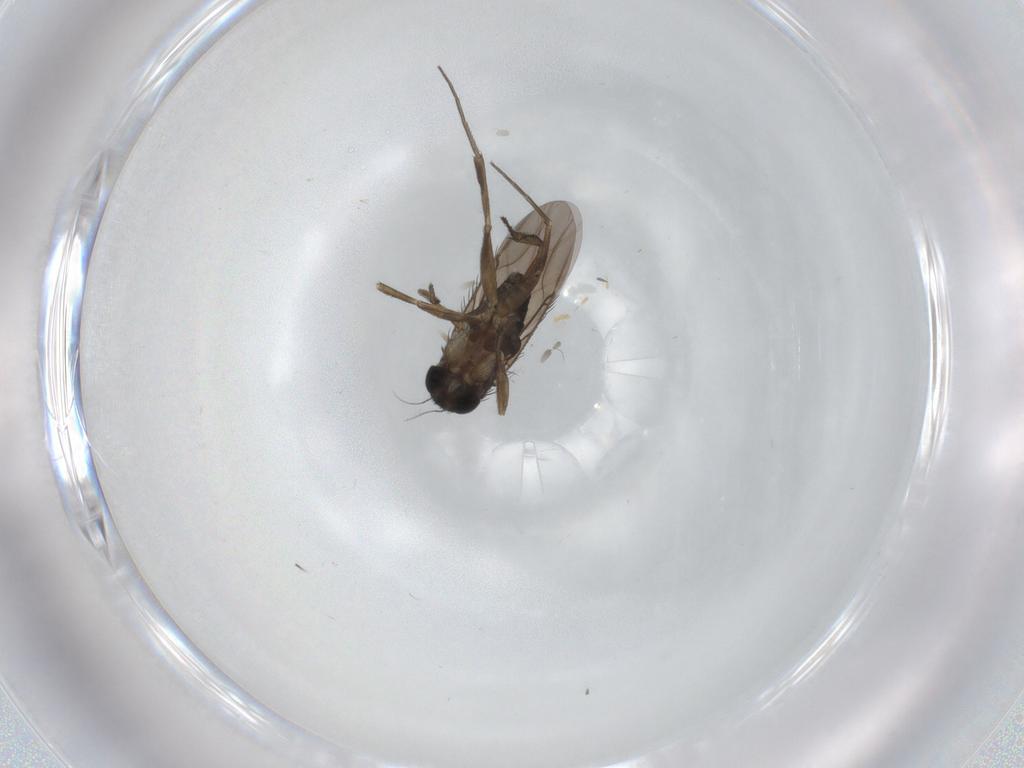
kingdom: Animalia
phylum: Arthropoda
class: Insecta
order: Diptera
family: Phoridae
